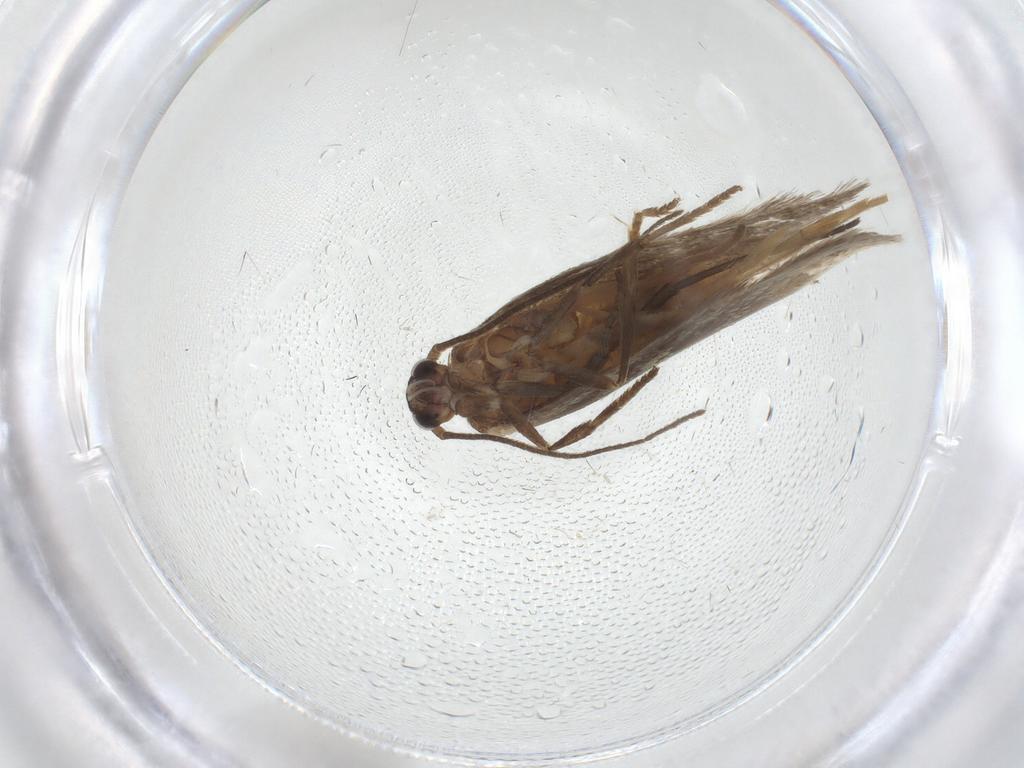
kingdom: Animalia
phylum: Arthropoda
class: Insecta
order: Lepidoptera
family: Elachistidae
